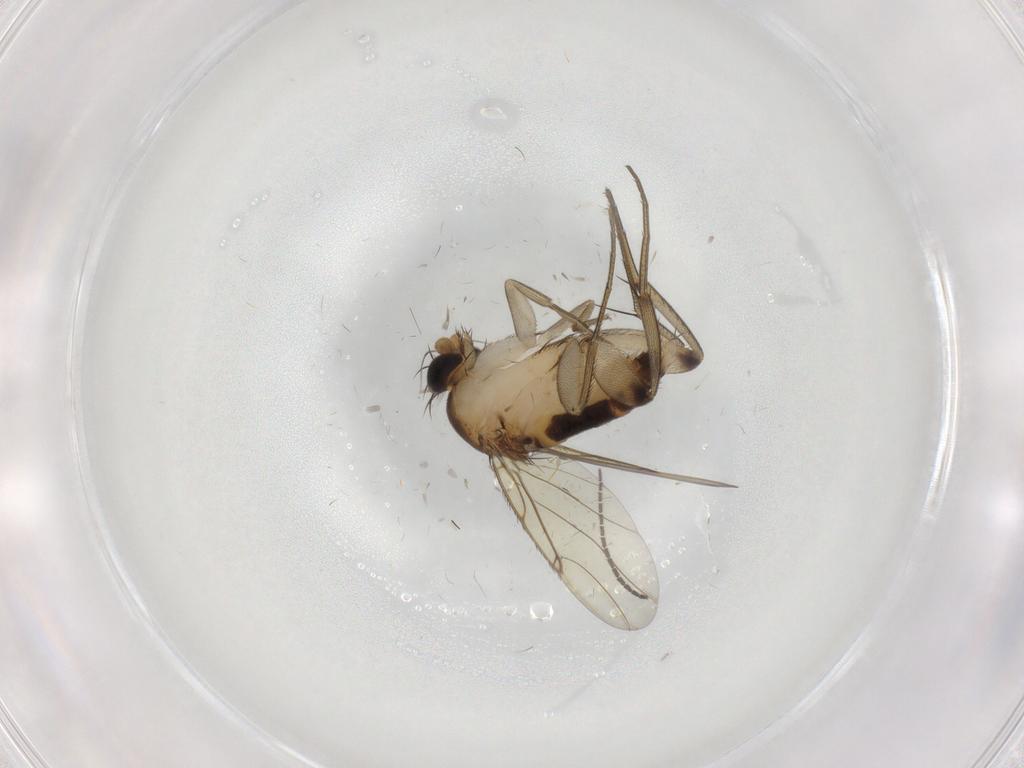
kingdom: Animalia
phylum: Arthropoda
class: Insecta
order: Diptera
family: Phoridae
